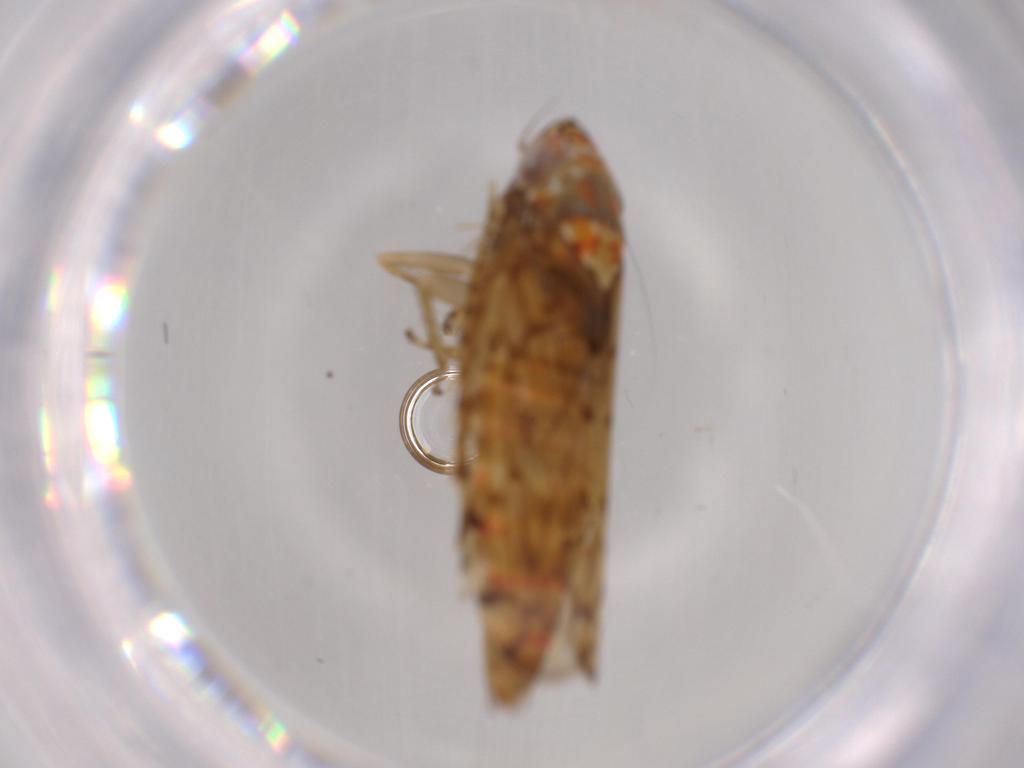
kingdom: Animalia
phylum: Arthropoda
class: Insecta
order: Hemiptera
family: Cicadellidae
